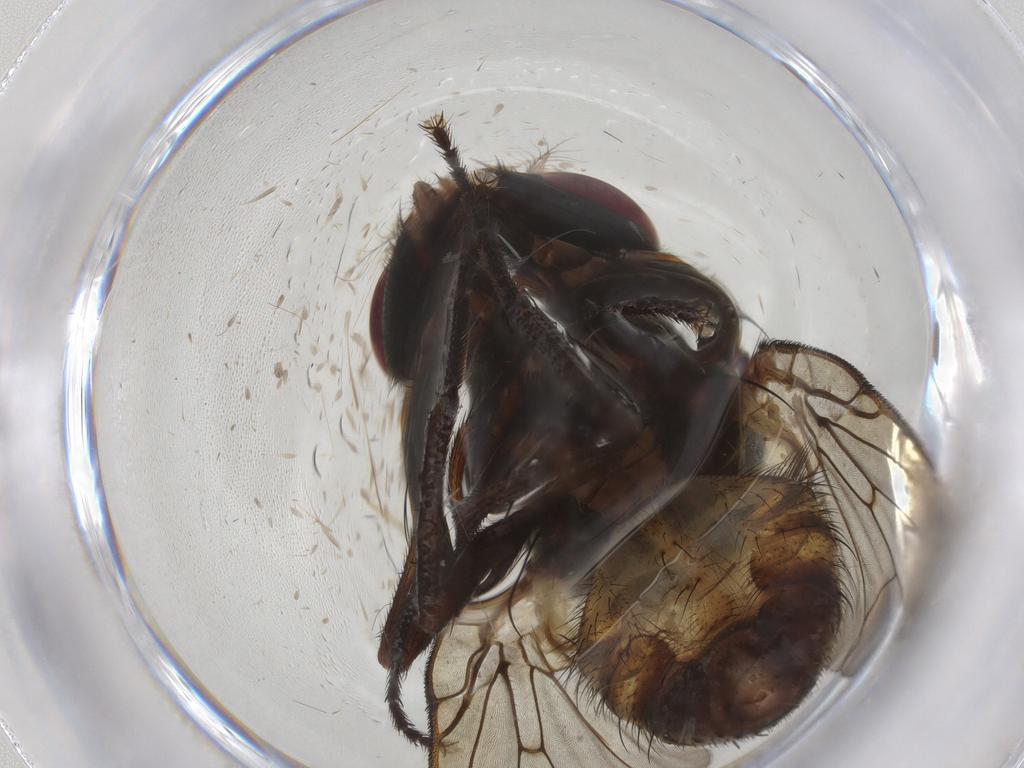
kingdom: Animalia
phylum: Arthropoda
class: Insecta
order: Diptera
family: Muscidae
